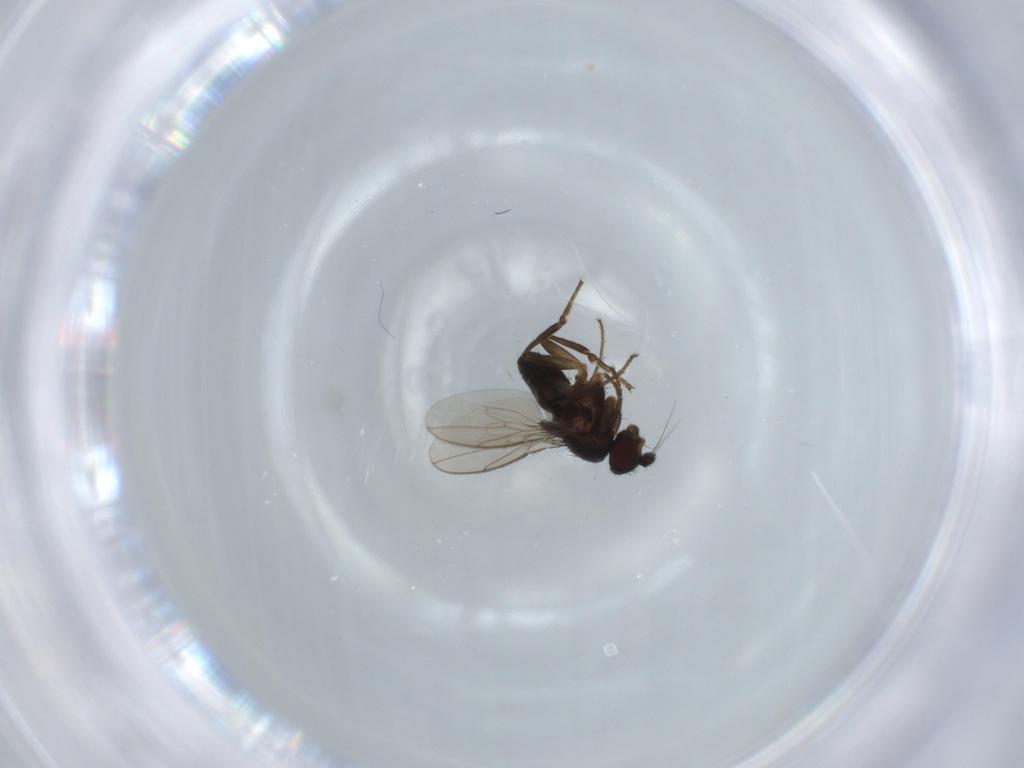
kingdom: Animalia
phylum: Arthropoda
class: Insecta
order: Diptera
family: Sphaeroceridae
